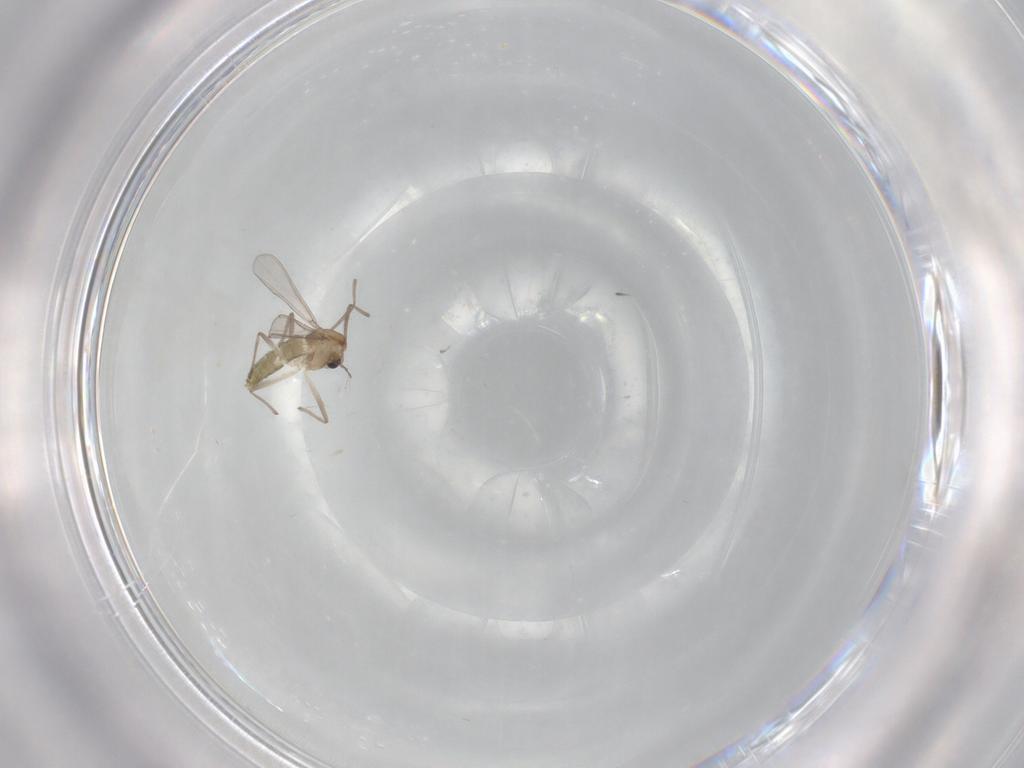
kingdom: Animalia
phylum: Arthropoda
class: Insecta
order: Diptera
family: Chironomidae
